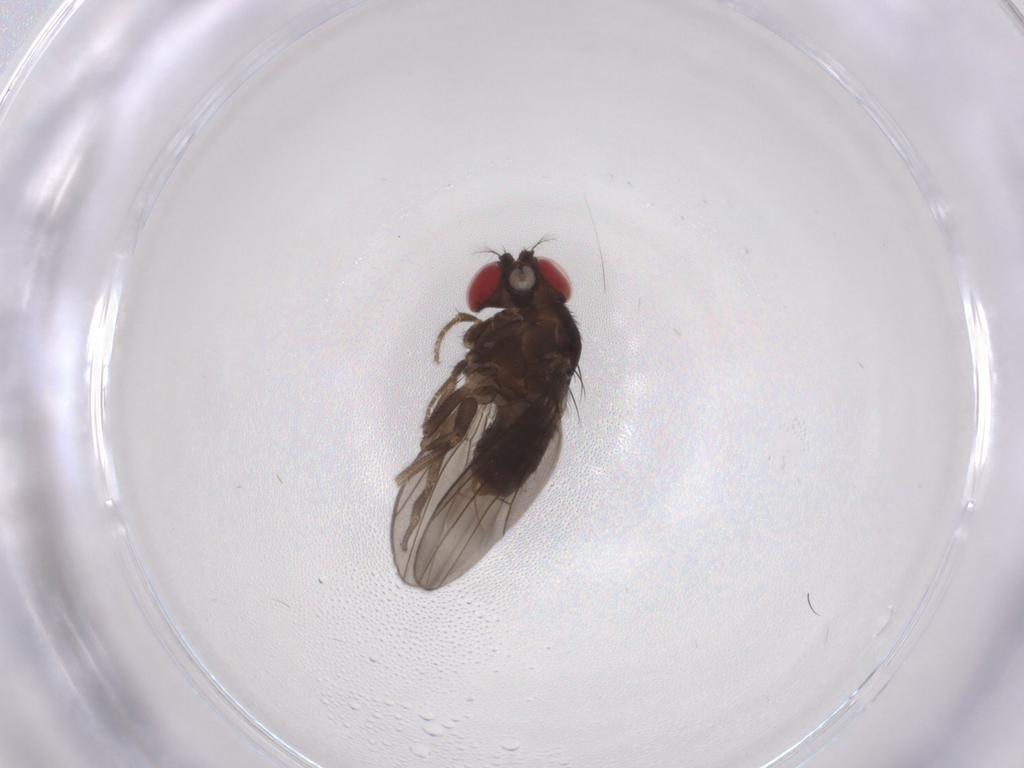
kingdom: Animalia
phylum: Arthropoda
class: Insecta
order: Diptera
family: Drosophilidae
